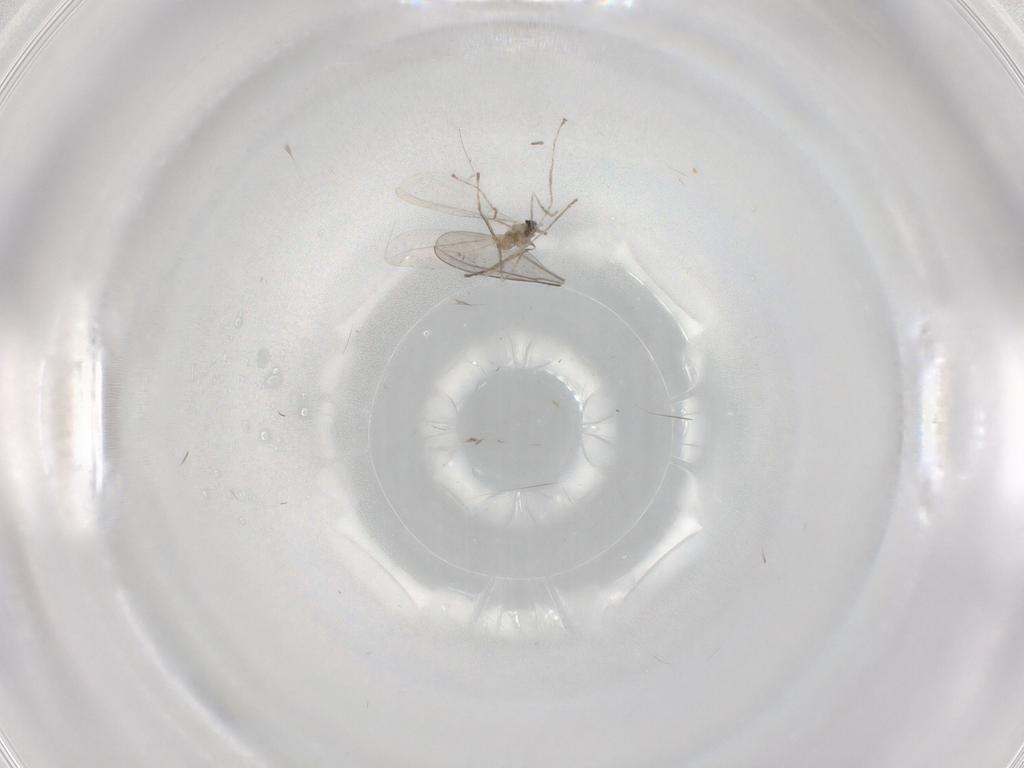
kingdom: Animalia
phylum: Arthropoda
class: Insecta
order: Diptera
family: Cecidomyiidae
